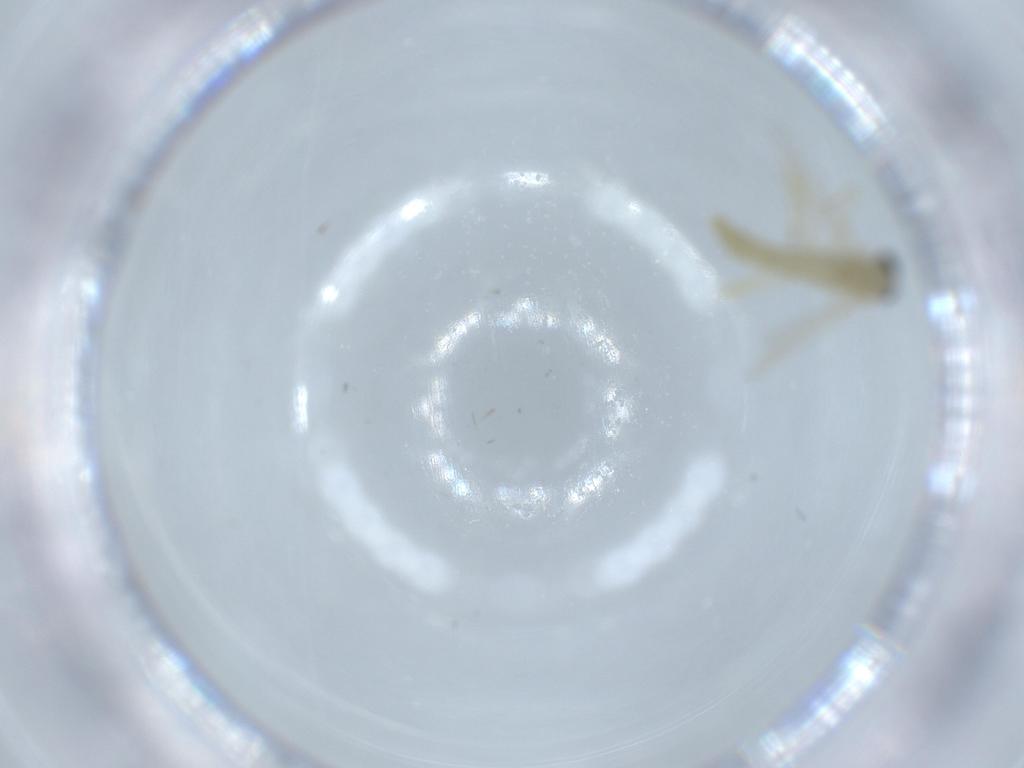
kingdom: Animalia
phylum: Arthropoda
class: Insecta
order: Diptera
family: Chironomidae
